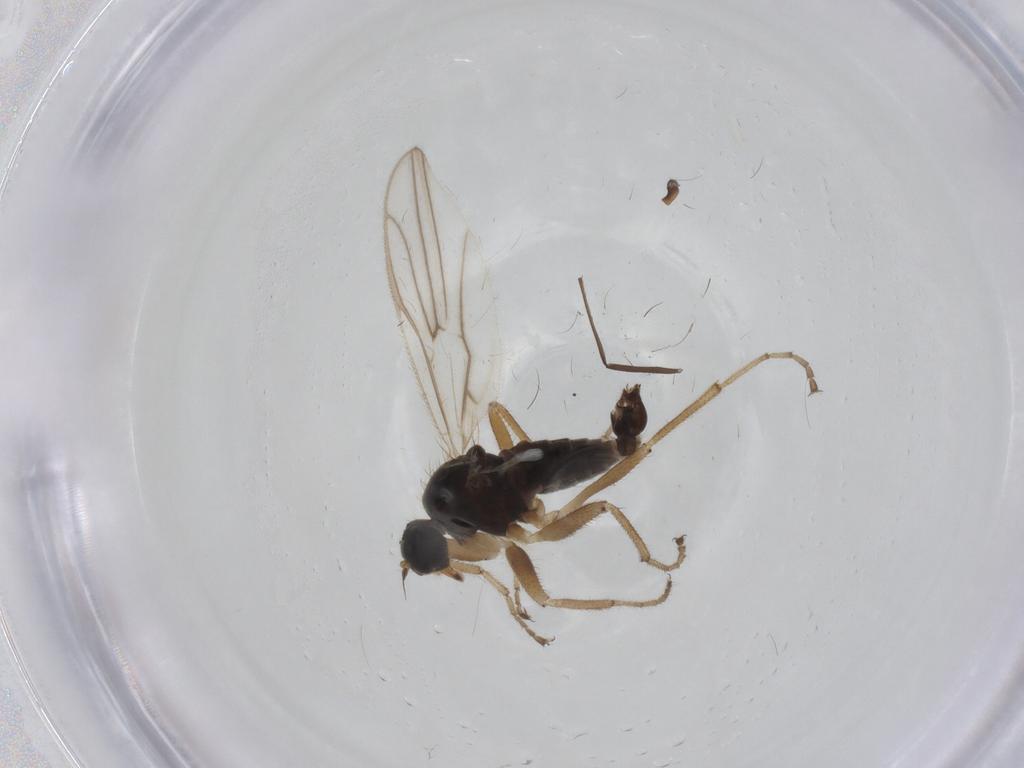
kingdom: Animalia
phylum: Arthropoda
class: Insecta
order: Diptera
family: Hybotidae
